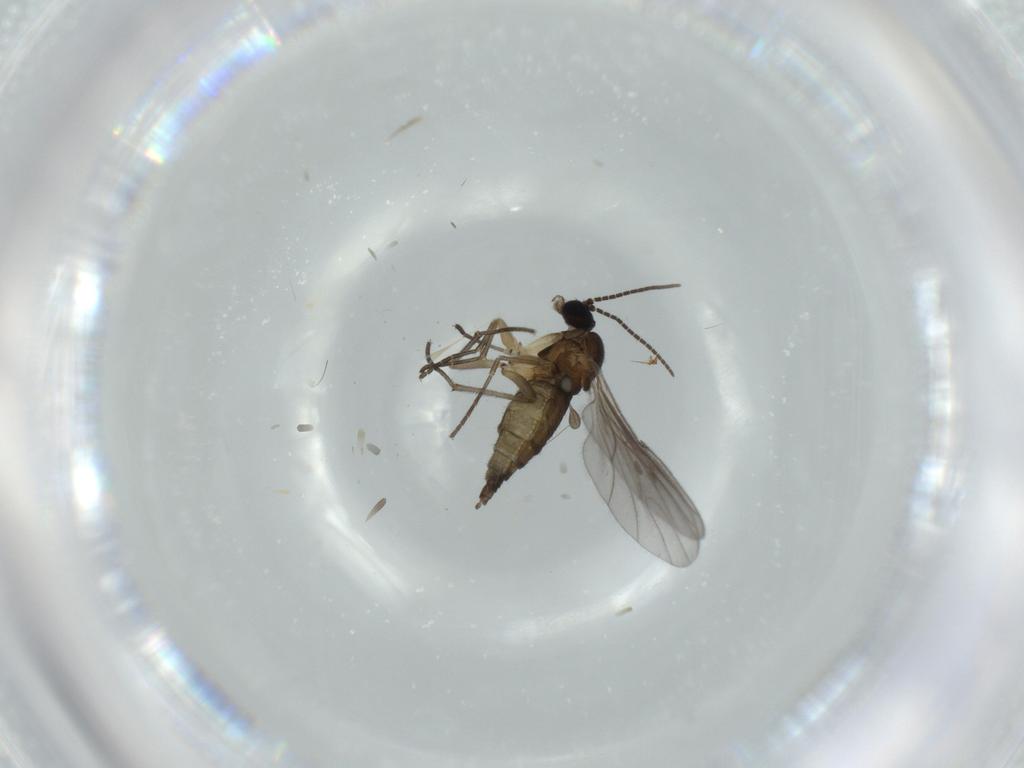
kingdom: Animalia
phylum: Arthropoda
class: Insecta
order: Diptera
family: Sciaridae
